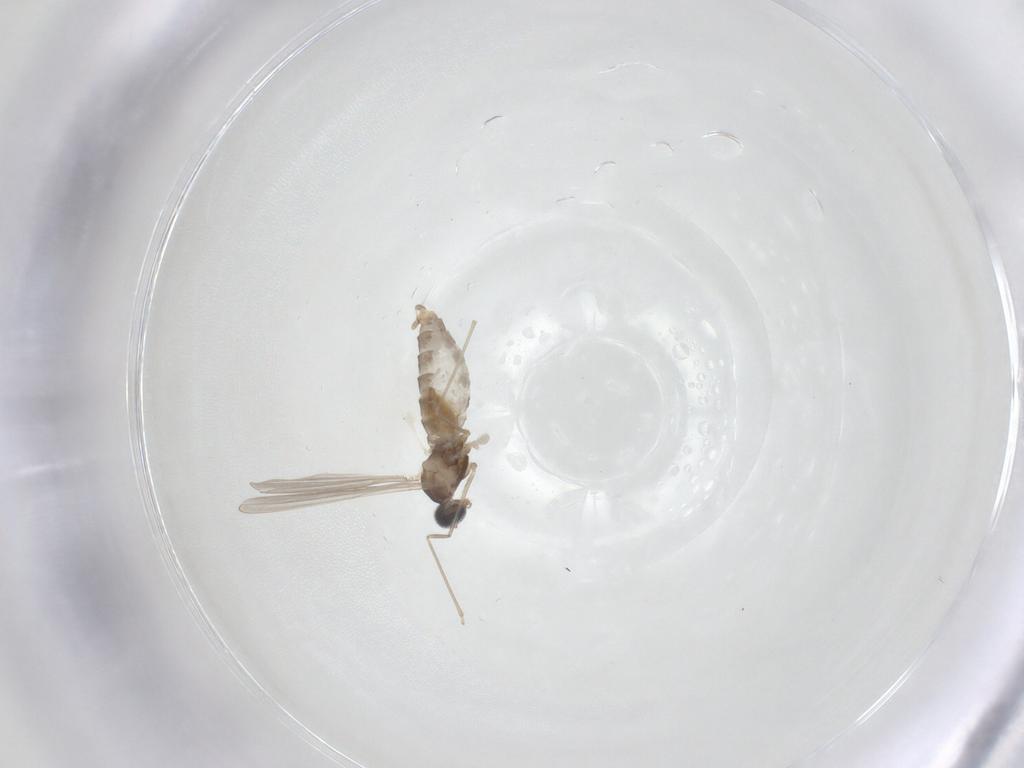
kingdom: Animalia
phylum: Arthropoda
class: Insecta
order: Diptera
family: Cecidomyiidae
